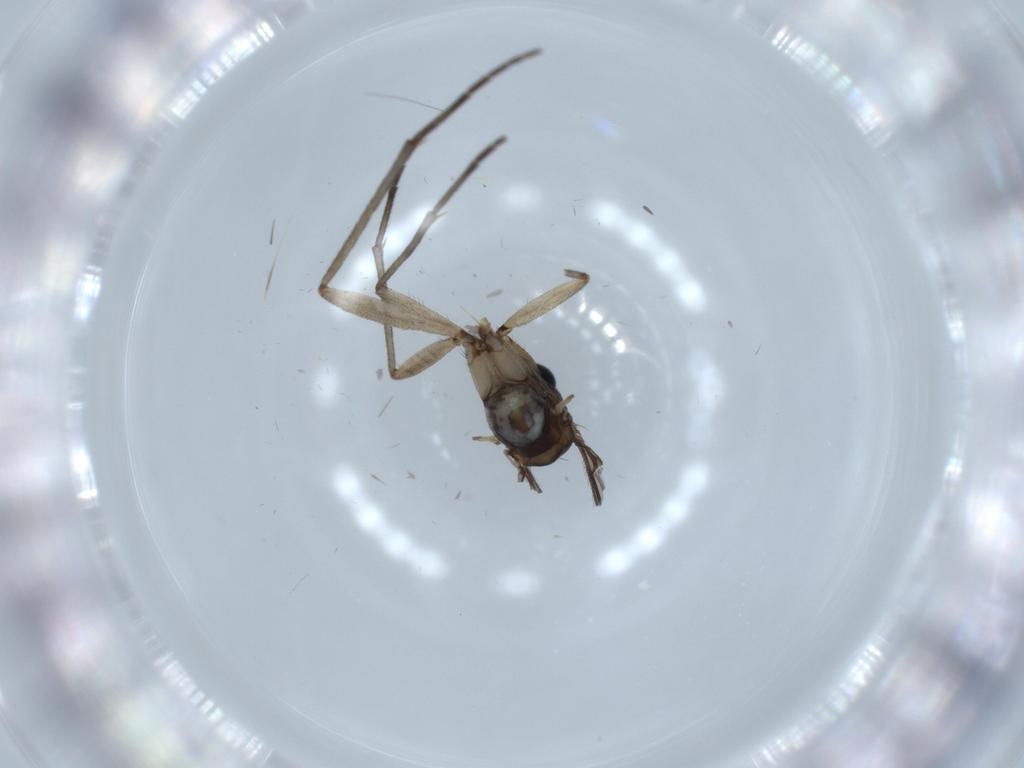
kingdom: Animalia
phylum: Arthropoda
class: Insecta
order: Diptera
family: Sciaridae
